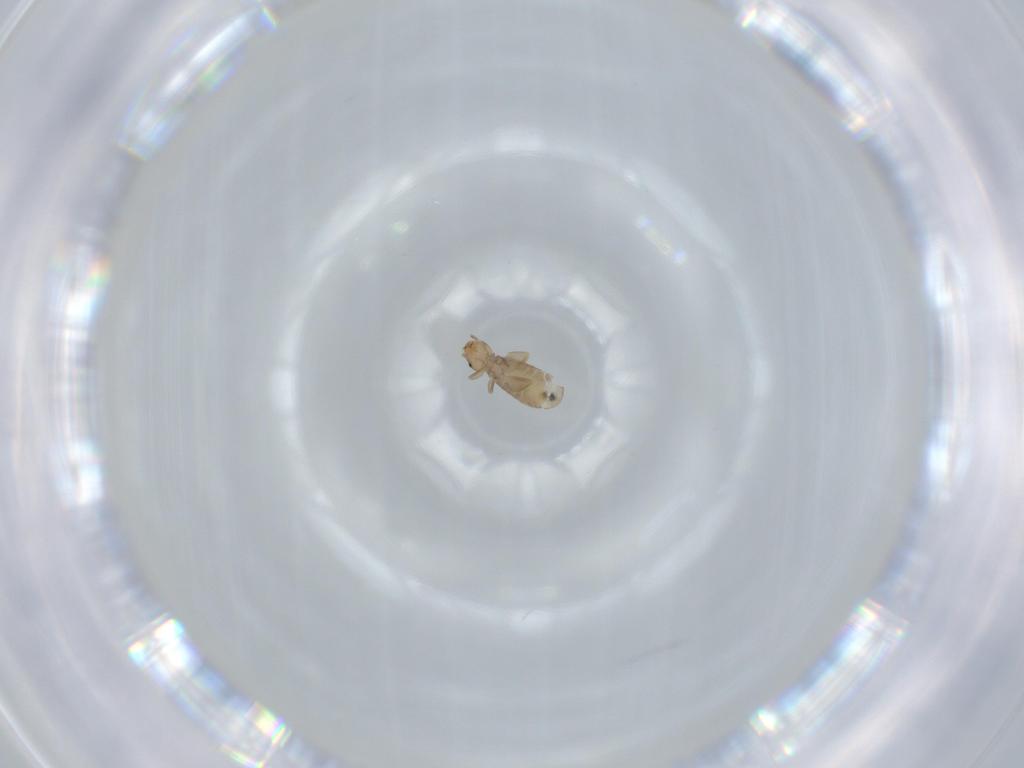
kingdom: Animalia
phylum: Arthropoda
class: Insecta
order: Psocodea
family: Liposcelididae
